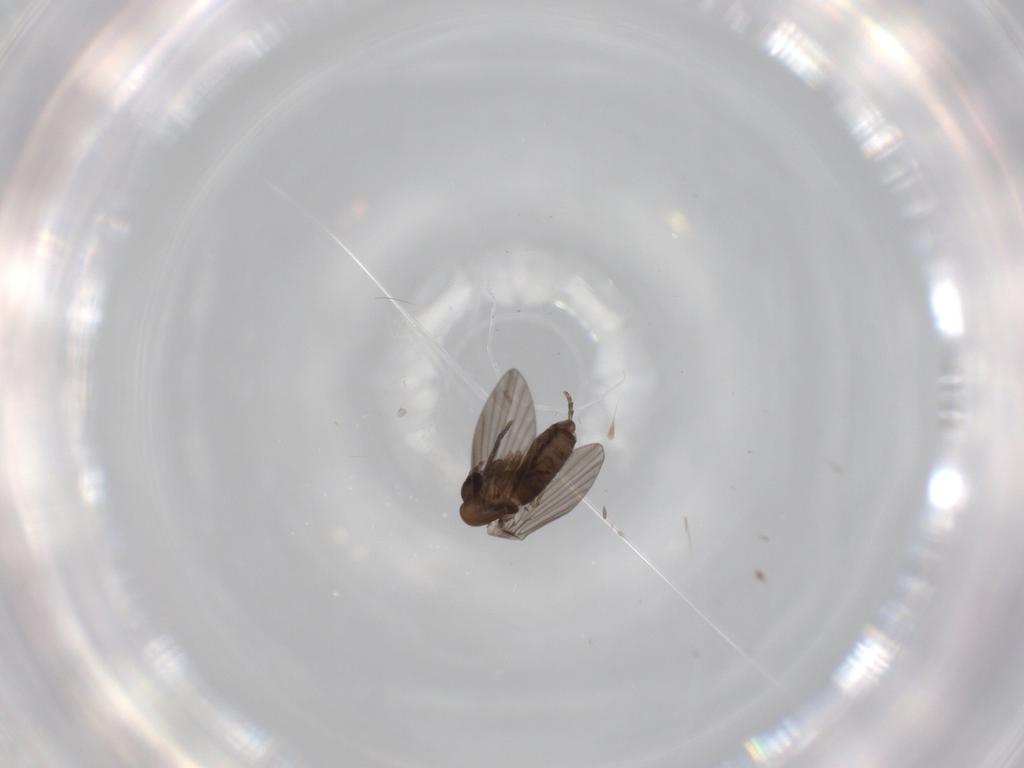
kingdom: Animalia
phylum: Arthropoda
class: Insecta
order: Diptera
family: Psychodidae
